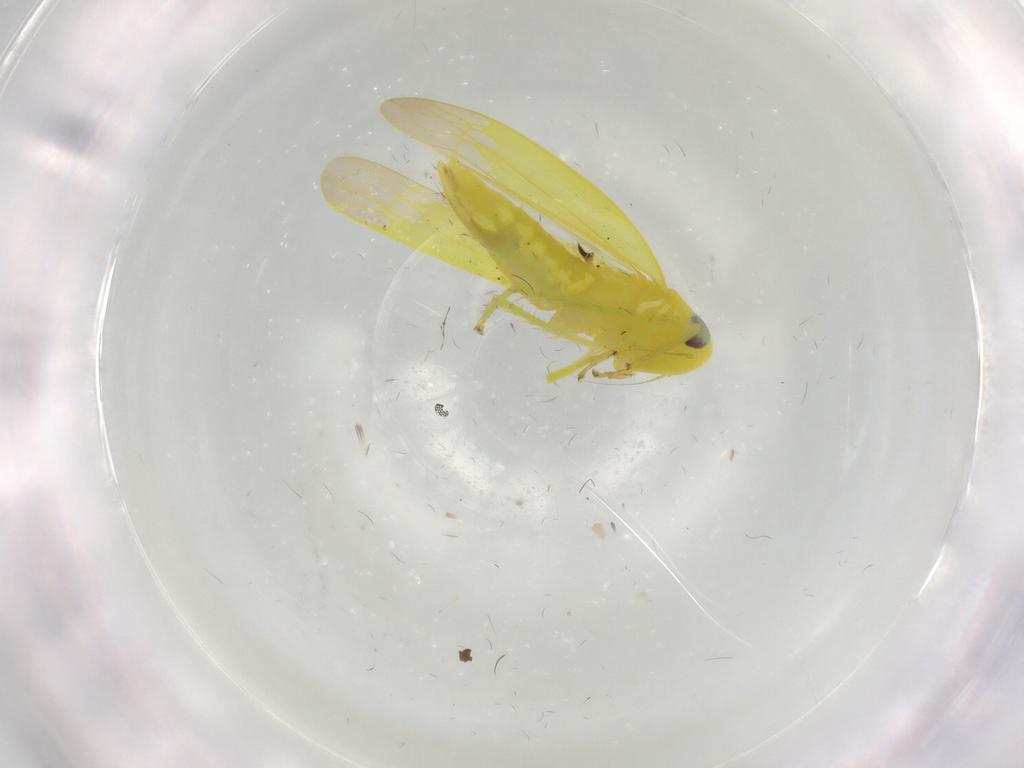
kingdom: Animalia
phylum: Arthropoda
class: Insecta
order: Hemiptera
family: Cicadellidae
